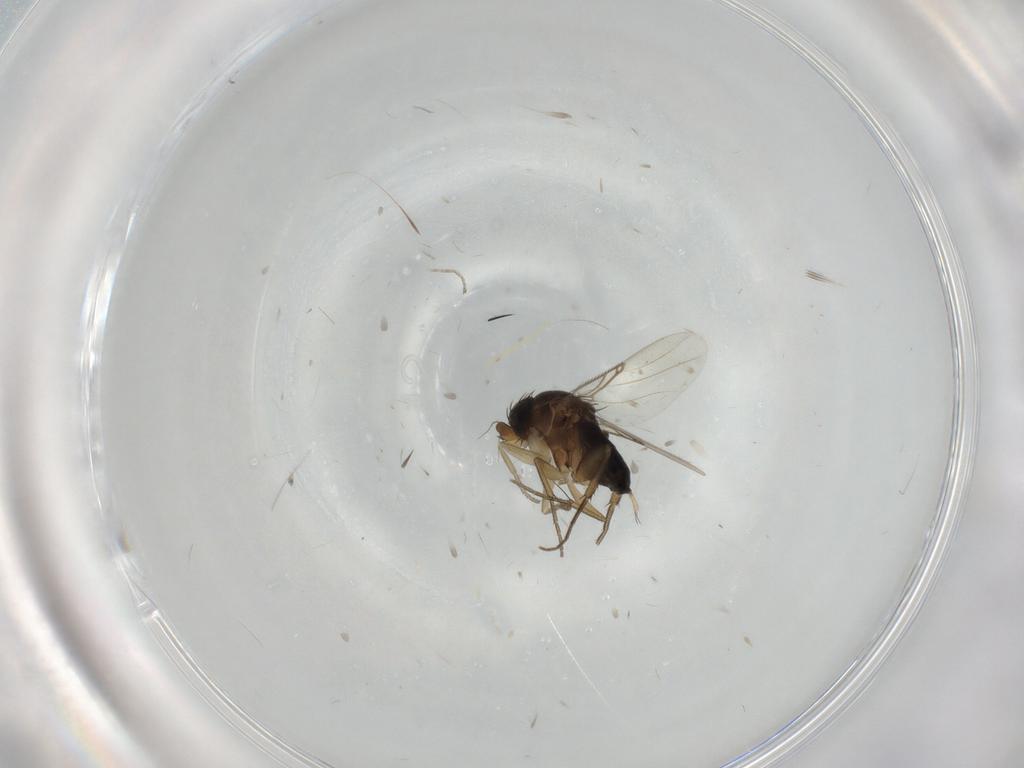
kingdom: Animalia
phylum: Arthropoda
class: Insecta
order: Diptera
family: Phoridae
